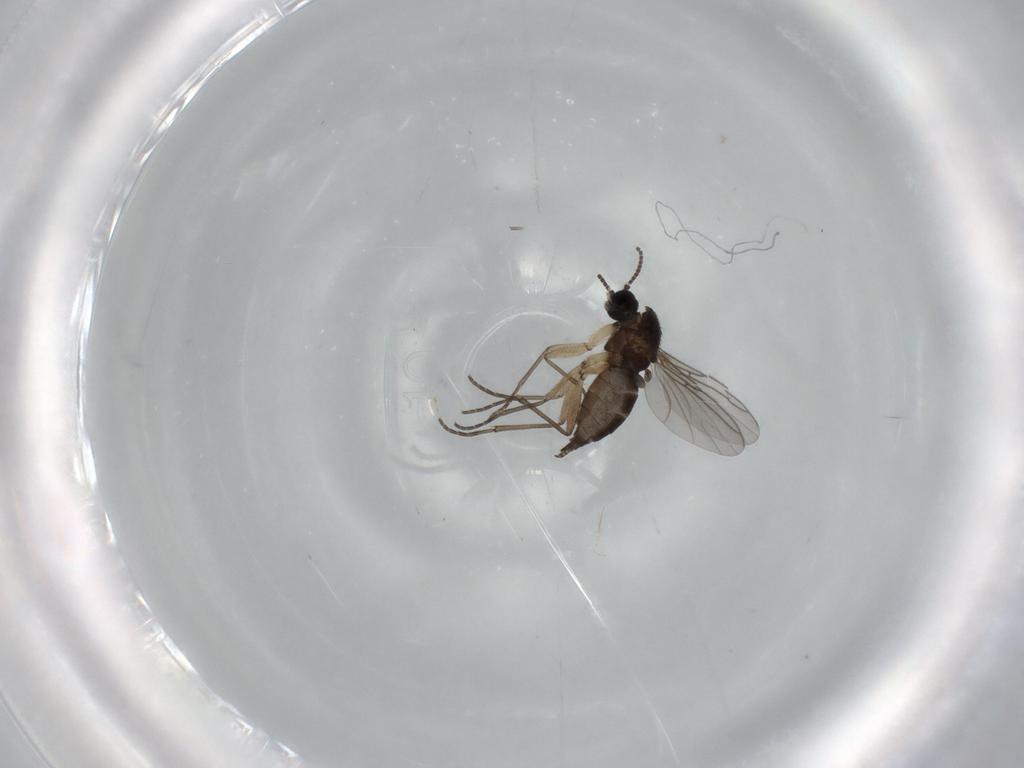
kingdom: Animalia
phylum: Arthropoda
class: Insecta
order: Diptera
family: Sciaridae
